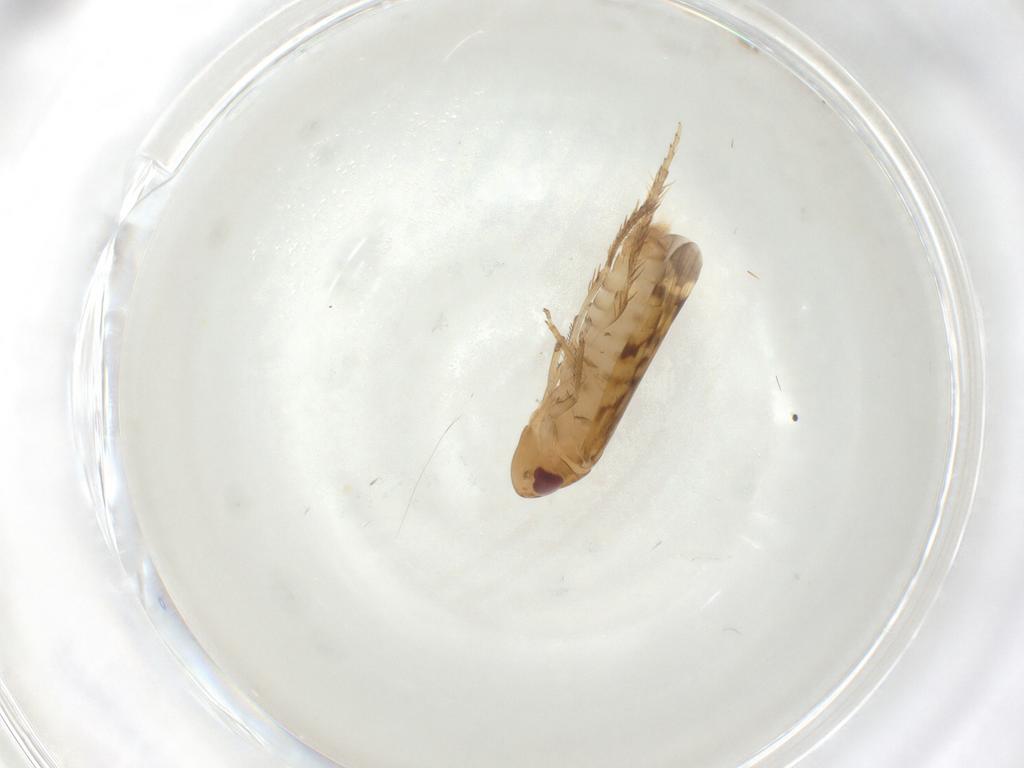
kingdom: Animalia
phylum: Arthropoda
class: Insecta
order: Hemiptera
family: Cicadellidae
